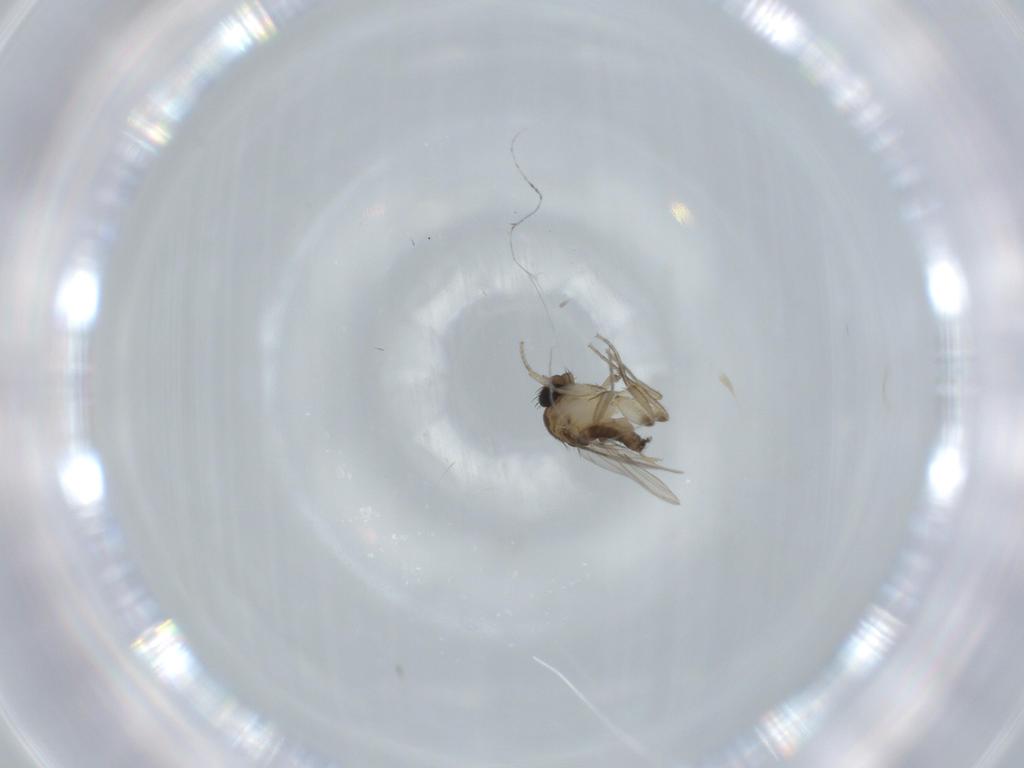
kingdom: Animalia
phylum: Arthropoda
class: Insecta
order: Diptera
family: Phoridae
